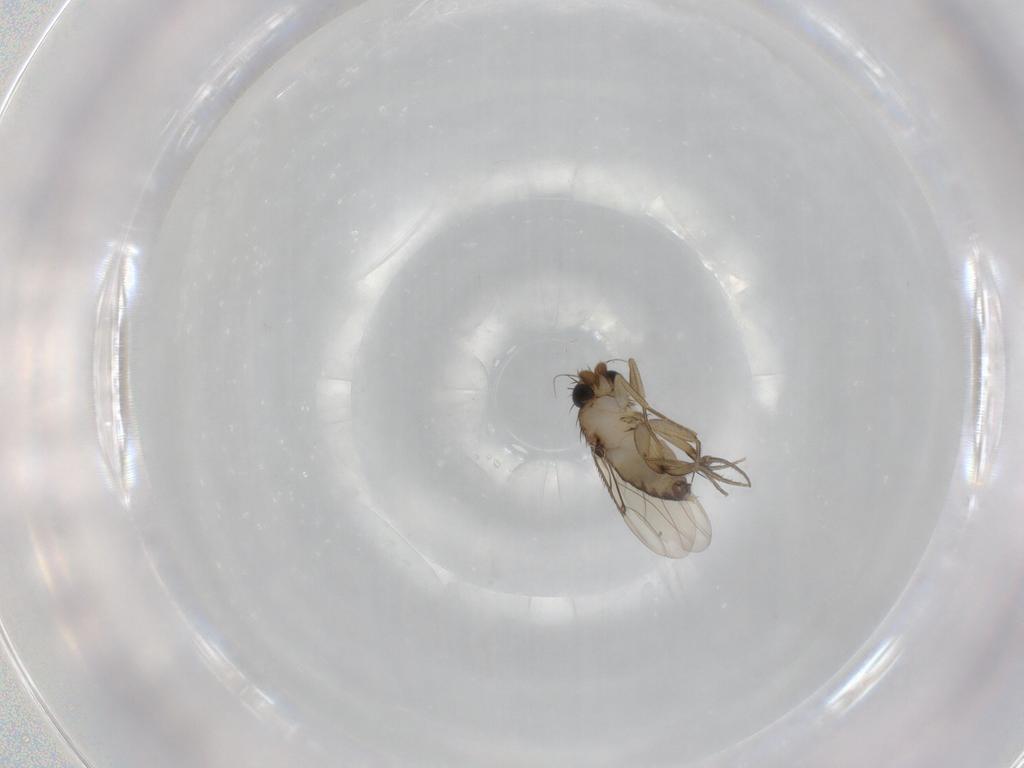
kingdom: Animalia
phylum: Arthropoda
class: Insecta
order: Diptera
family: Phoridae
